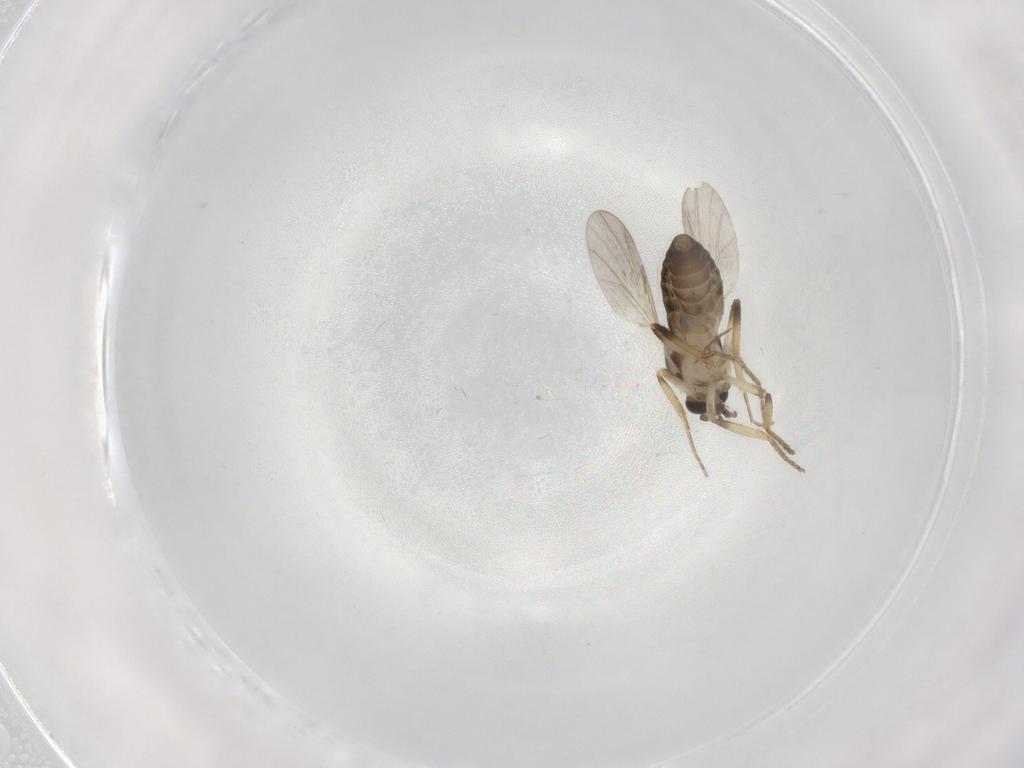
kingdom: Animalia
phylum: Arthropoda
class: Insecta
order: Diptera
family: Ceratopogonidae
